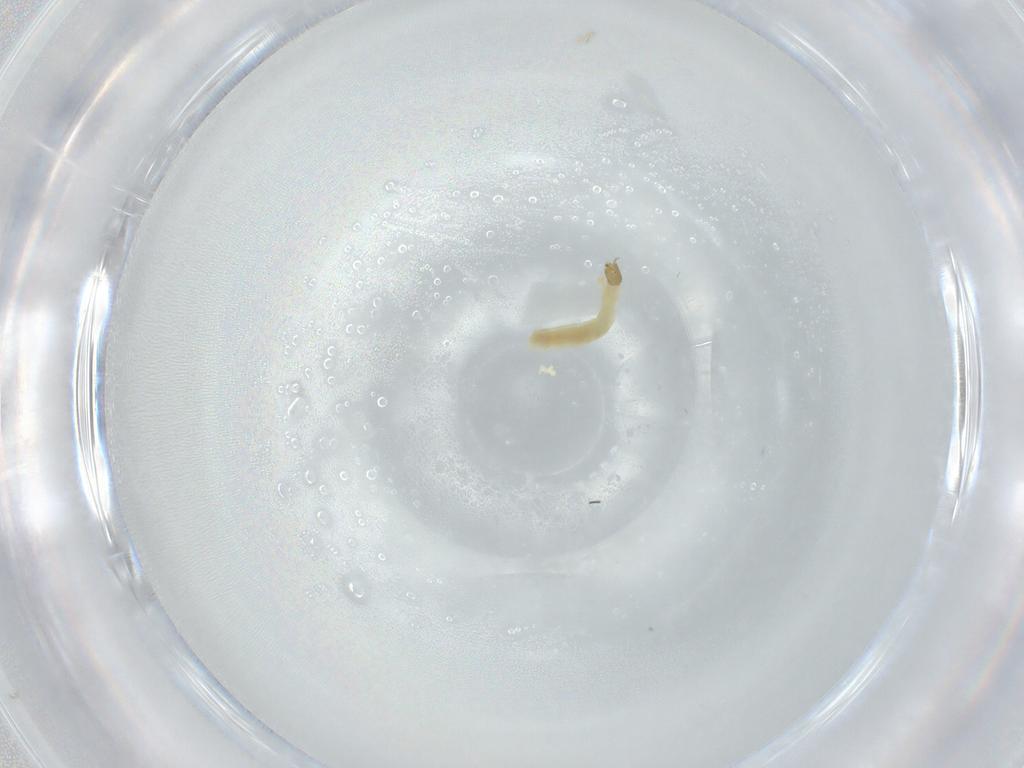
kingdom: Animalia
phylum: Arthropoda
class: Insecta
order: Diptera
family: Chironomidae
